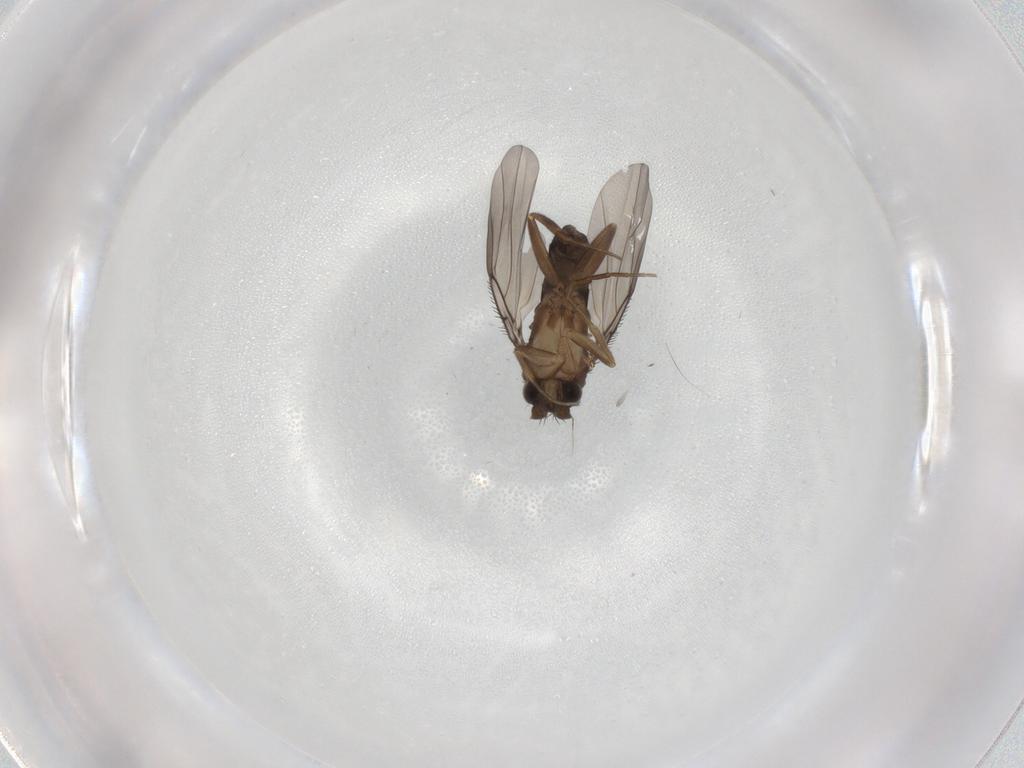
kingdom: Animalia
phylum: Arthropoda
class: Insecta
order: Diptera
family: Phoridae
